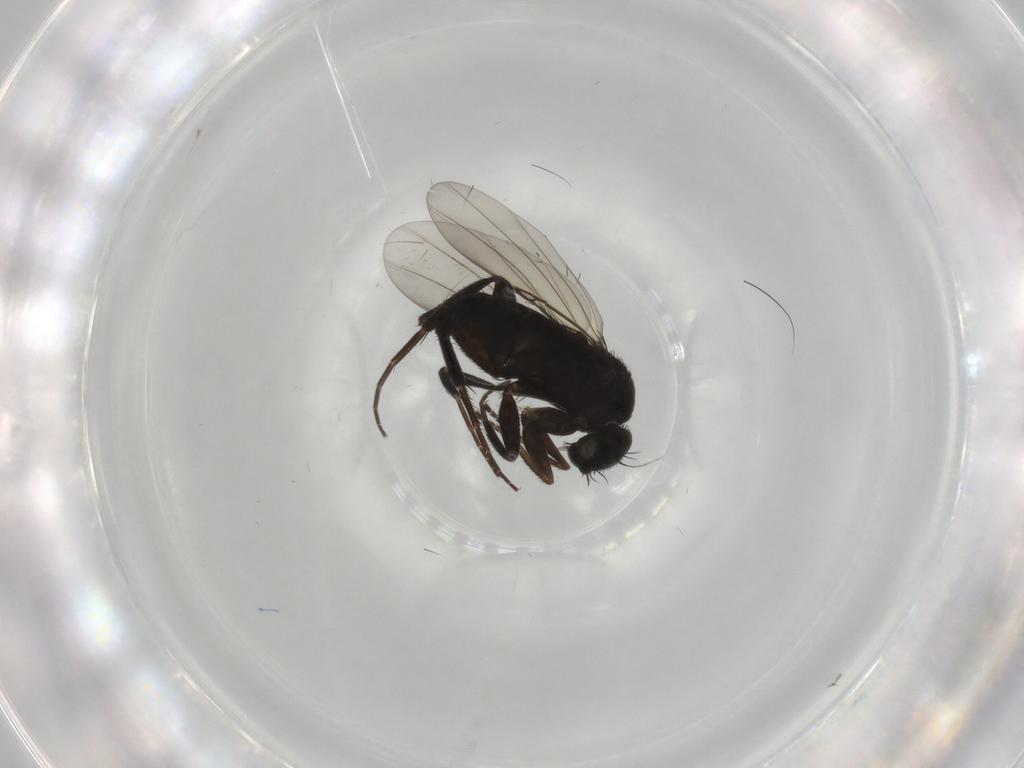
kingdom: Animalia
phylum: Arthropoda
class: Insecta
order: Diptera
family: Phoridae
